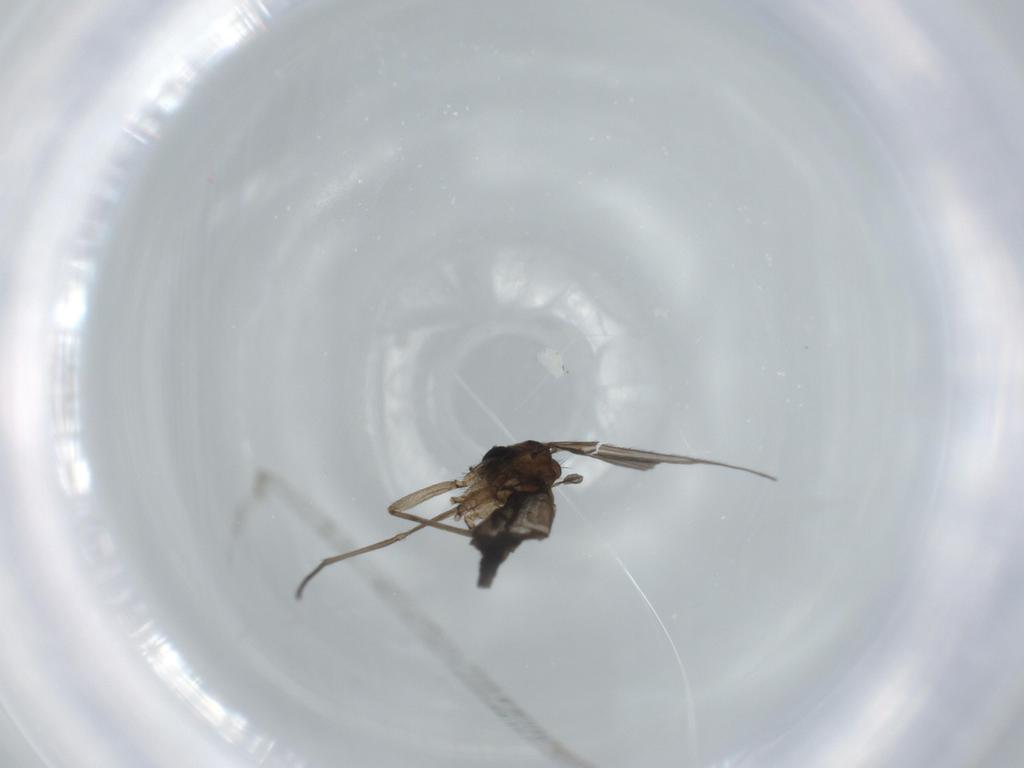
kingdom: Animalia
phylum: Arthropoda
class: Insecta
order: Diptera
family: Sciaridae
